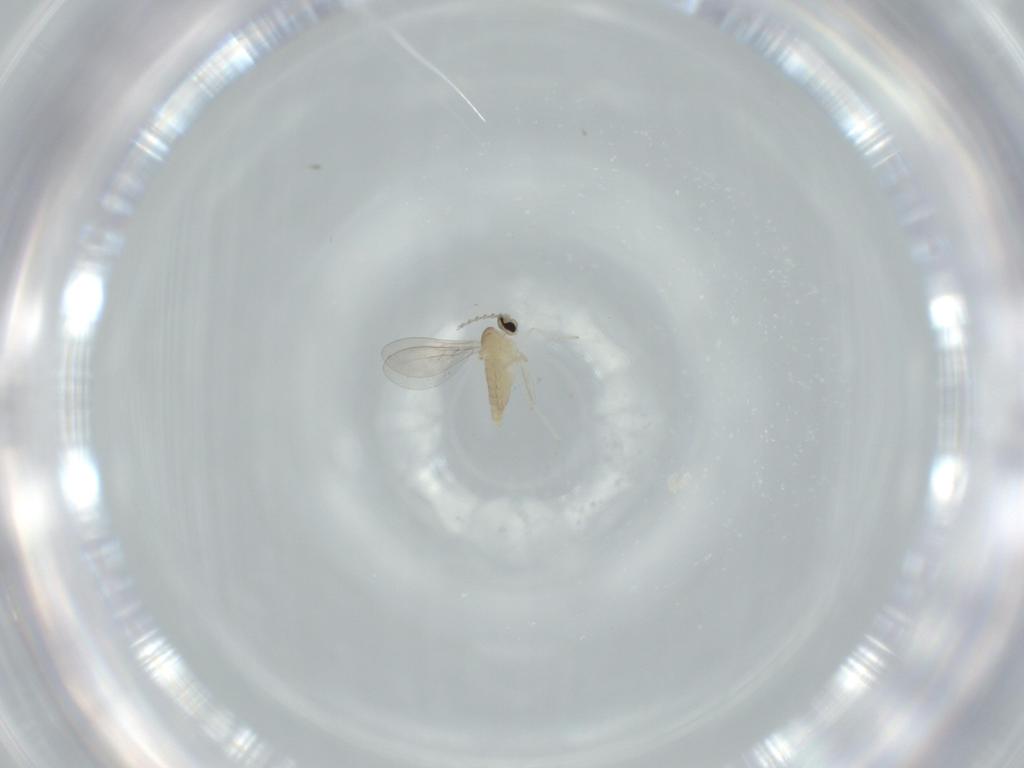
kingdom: Animalia
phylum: Arthropoda
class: Insecta
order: Diptera
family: Cecidomyiidae
